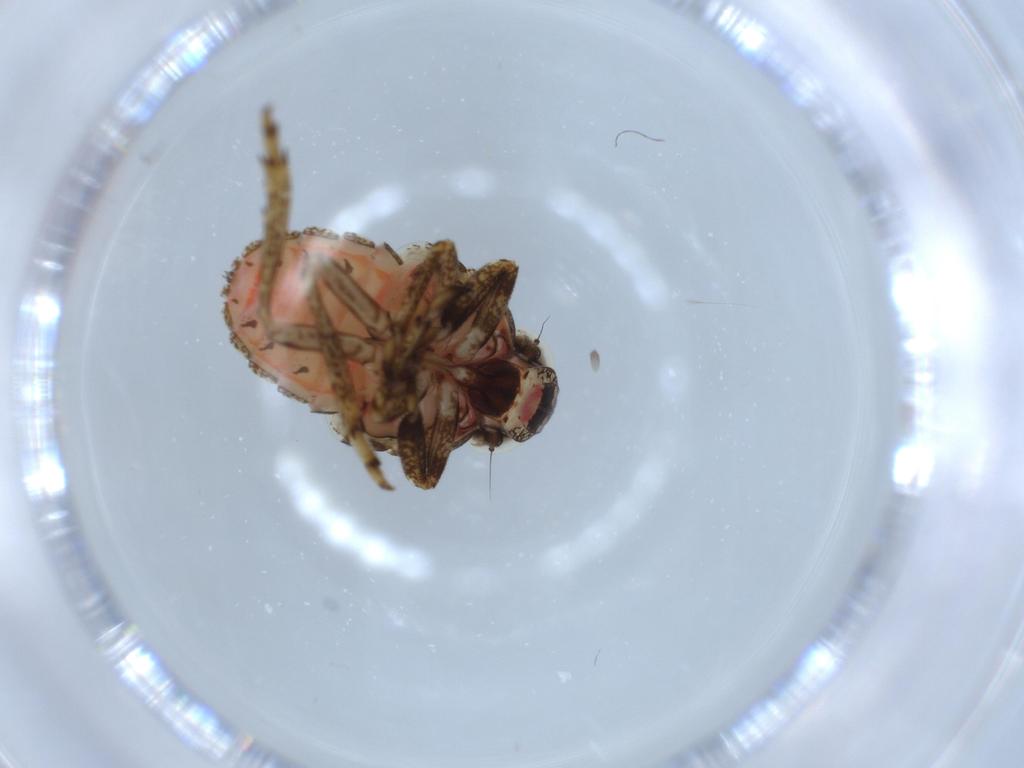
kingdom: Animalia
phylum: Arthropoda
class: Insecta
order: Hemiptera
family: Issidae
